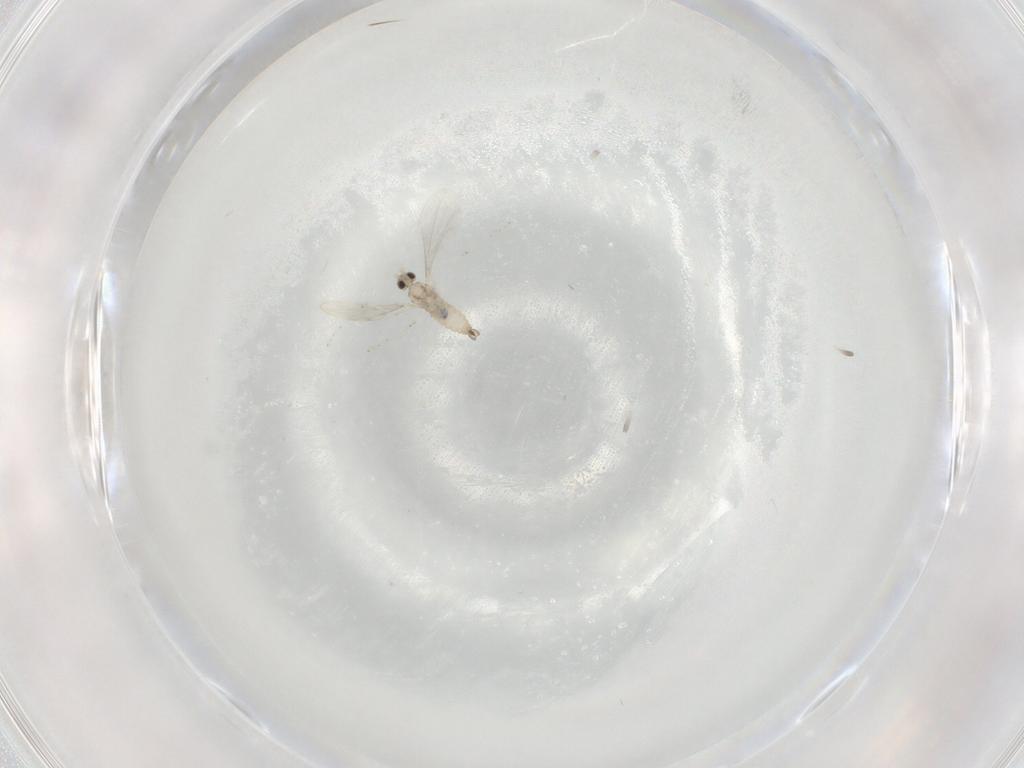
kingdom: Animalia
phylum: Arthropoda
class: Insecta
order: Diptera
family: Cecidomyiidae
